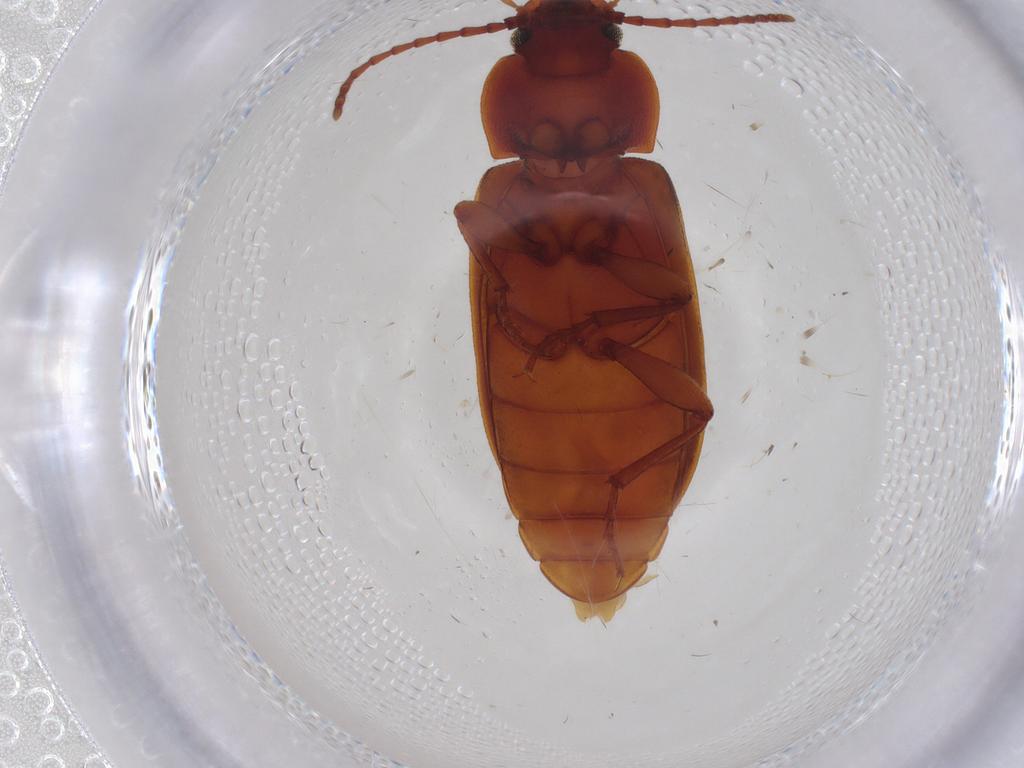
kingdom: Animalia
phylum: Arthropoda
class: Insecta
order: Coleoptera
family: Tenebrionidae
